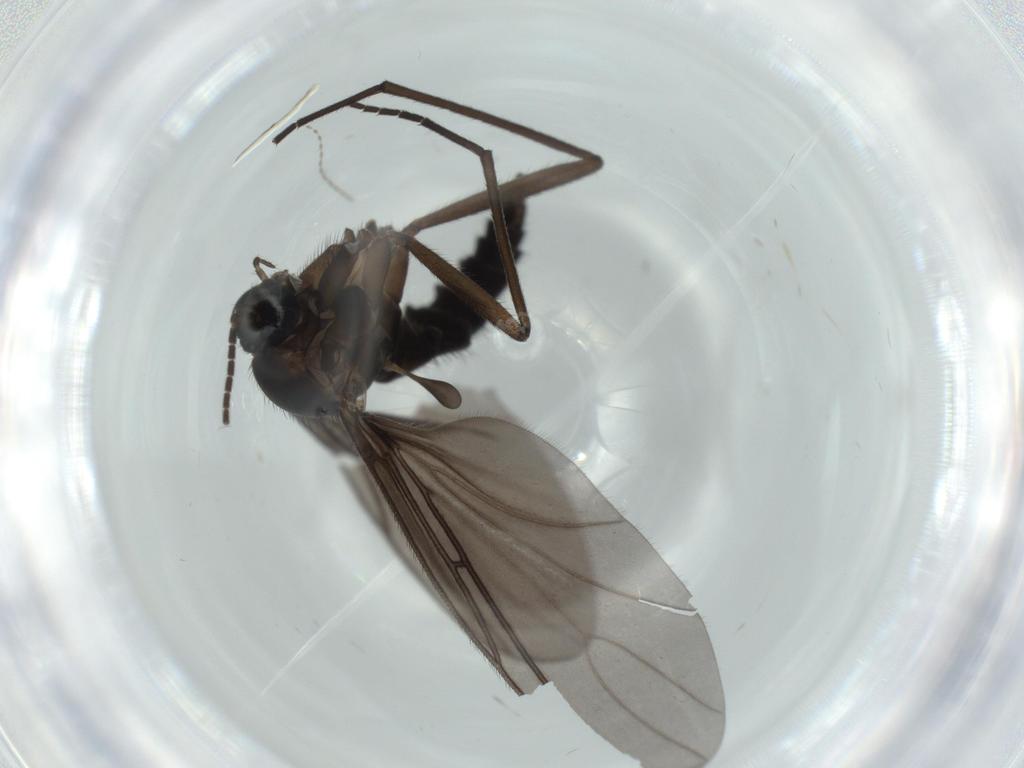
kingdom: Animalia
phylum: Arthropoda
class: Insecta
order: Diptera
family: Sciaridae
